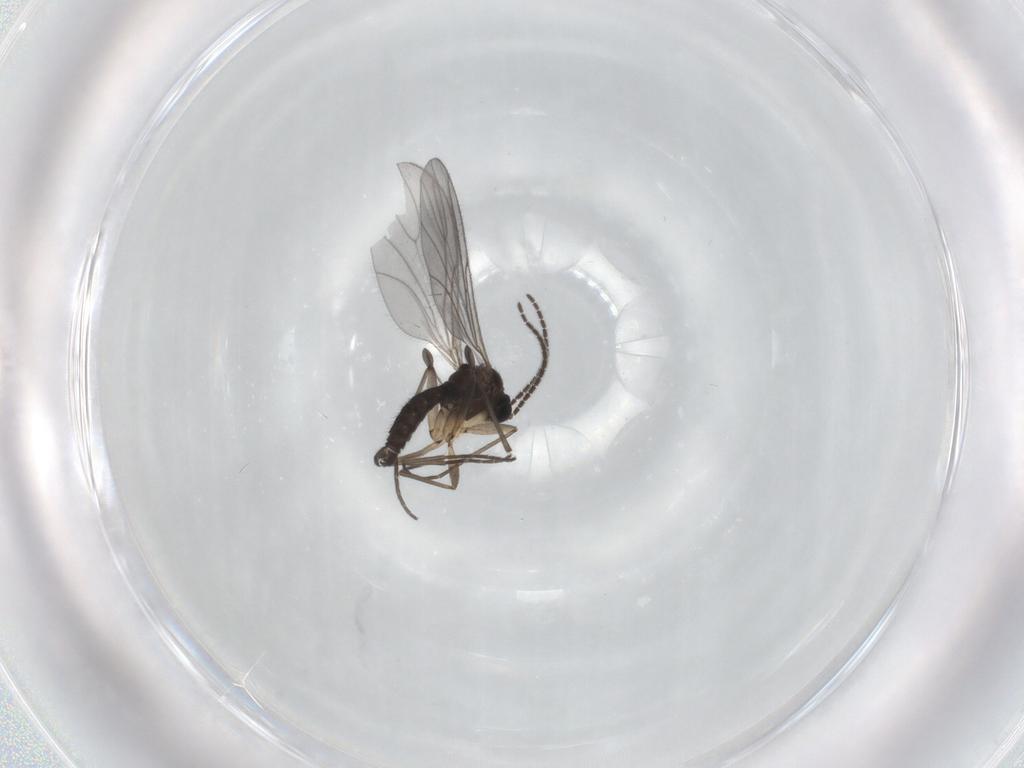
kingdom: Animalia
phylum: Arthropoda
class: Insecta
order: Diptera
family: Sciaridae
